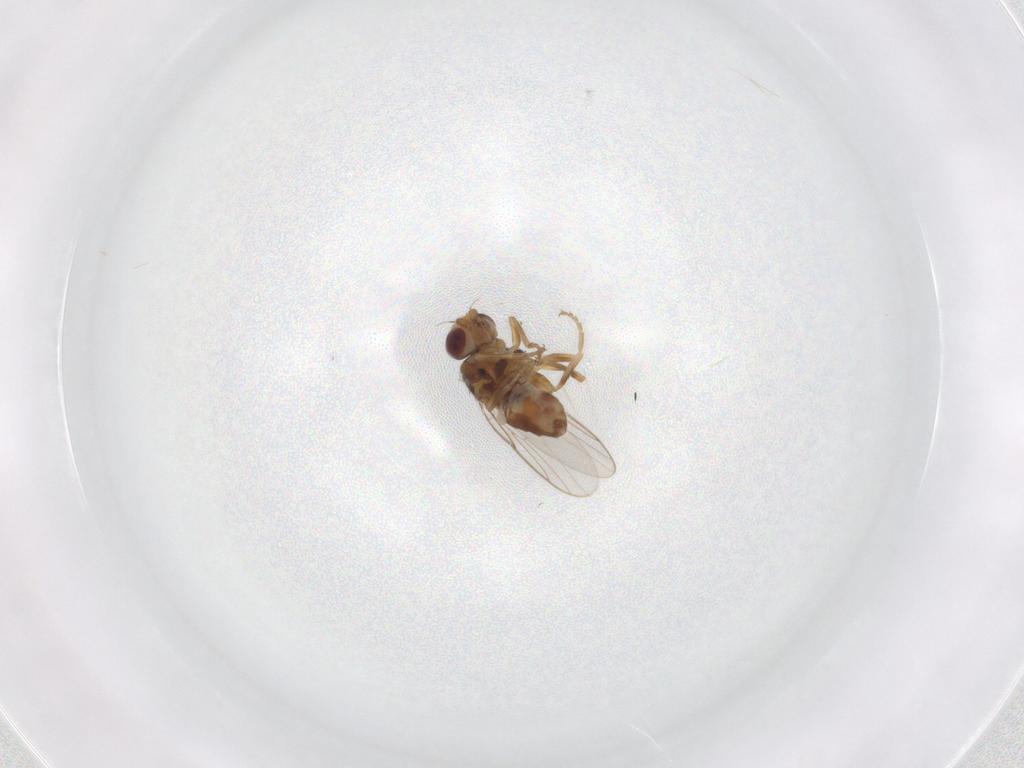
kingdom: Animalia
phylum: Arthropoda
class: Insecta
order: Diptera
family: Chloropidae
